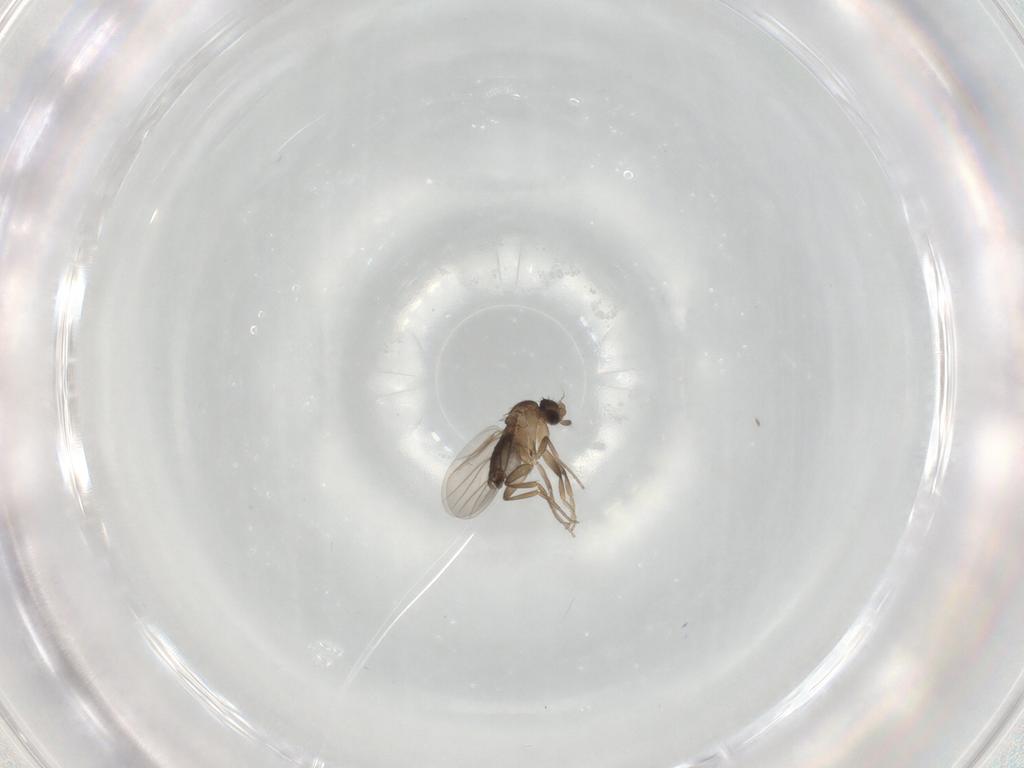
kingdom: Animalia
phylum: Arthropoda
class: Insecta
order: Diptera
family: Phoridae
